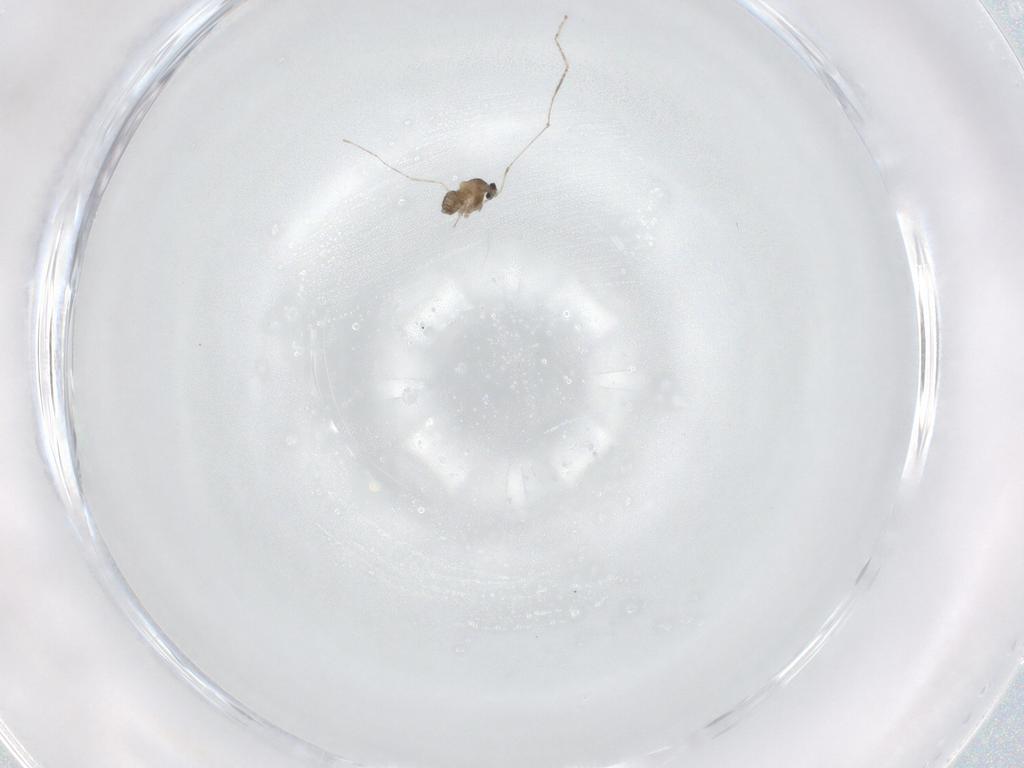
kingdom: Animalia
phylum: Arthropoda
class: Insecta
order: Diptera
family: Cecidomyiidae
